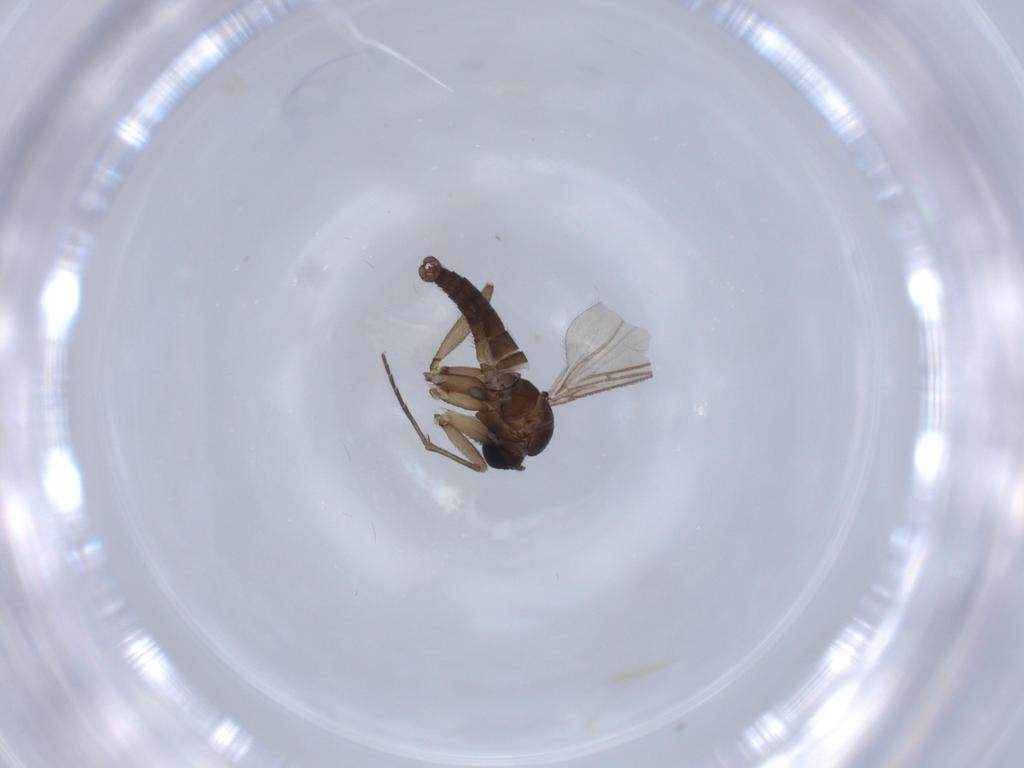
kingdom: Animalia
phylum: Arthropoda
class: Insecta
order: Diptera
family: Sciaridae
